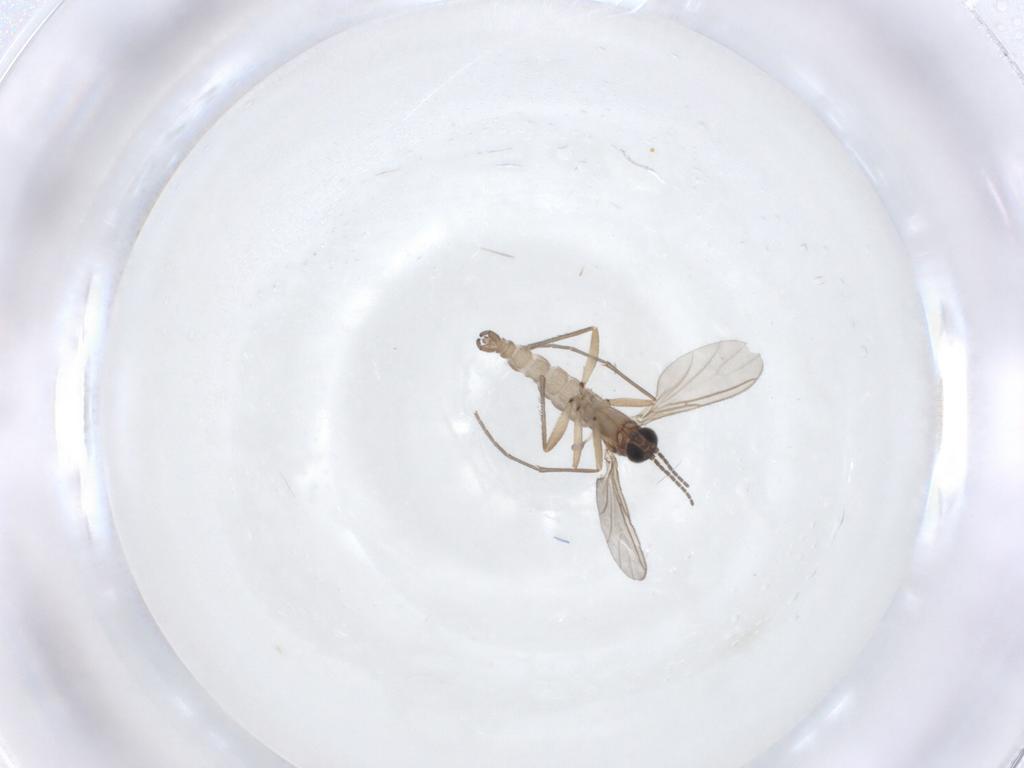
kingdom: Animalia
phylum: Arthropoda
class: Insecta
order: Diptera
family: Sciaridae
